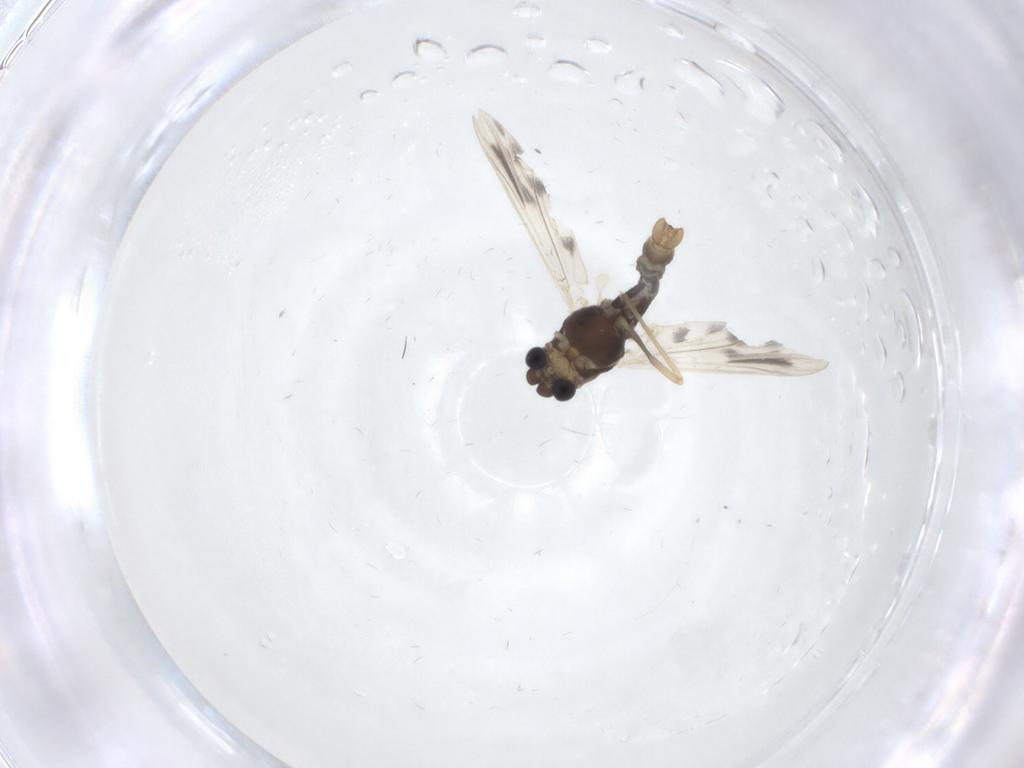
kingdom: Animalia
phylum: Arthropoda
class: Insecta
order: Diptera
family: Chironomidae
